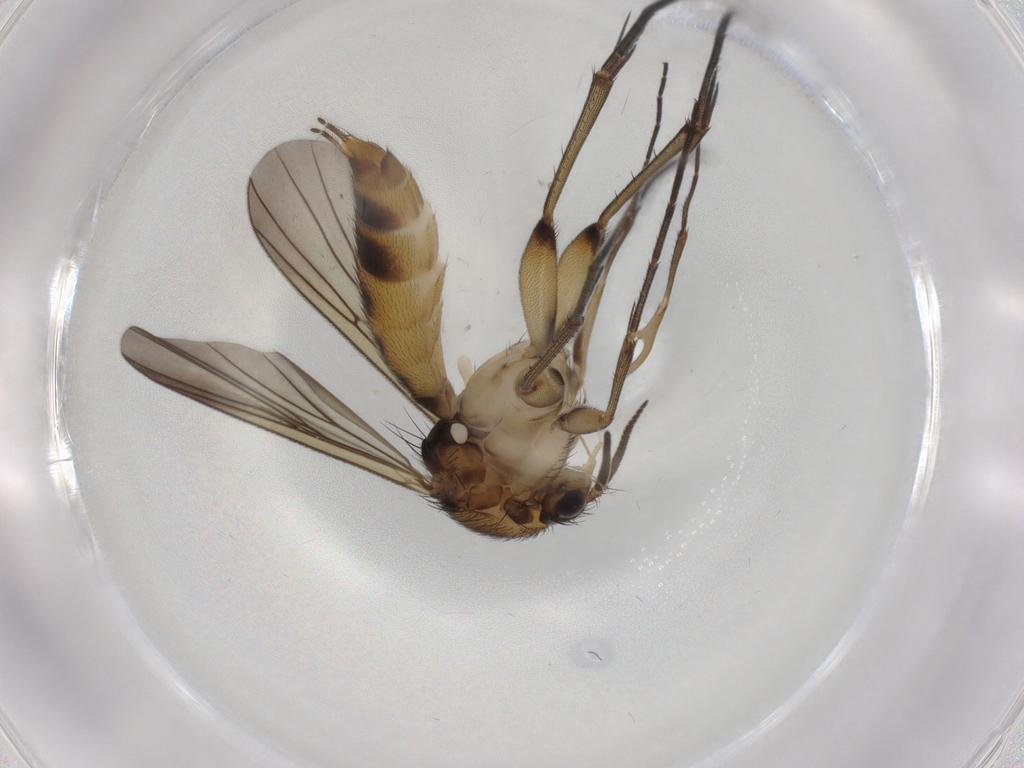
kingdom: Animalia
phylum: Arthropoda
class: Insecta
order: Diptera
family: Mycetophilidae
